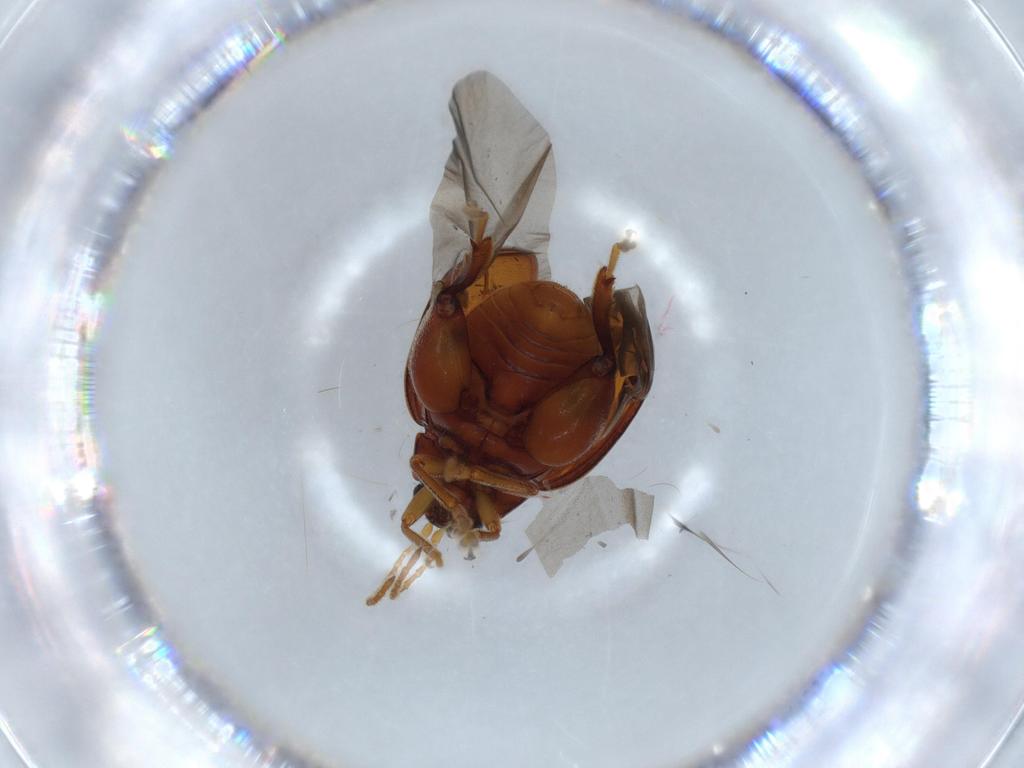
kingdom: Animalia
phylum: Arthropoda
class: Insecta
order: Coleoptera
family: Chrysomelidae
